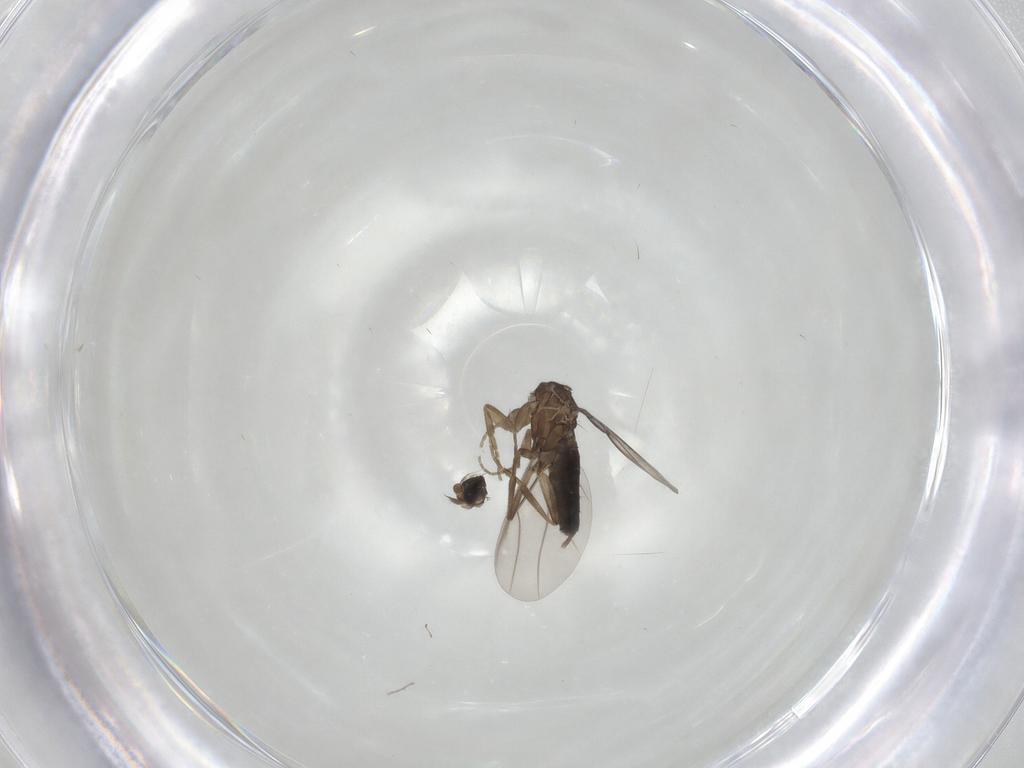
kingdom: Animalia
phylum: Arthropoda
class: Insecta
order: Diptera
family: Phoridae
